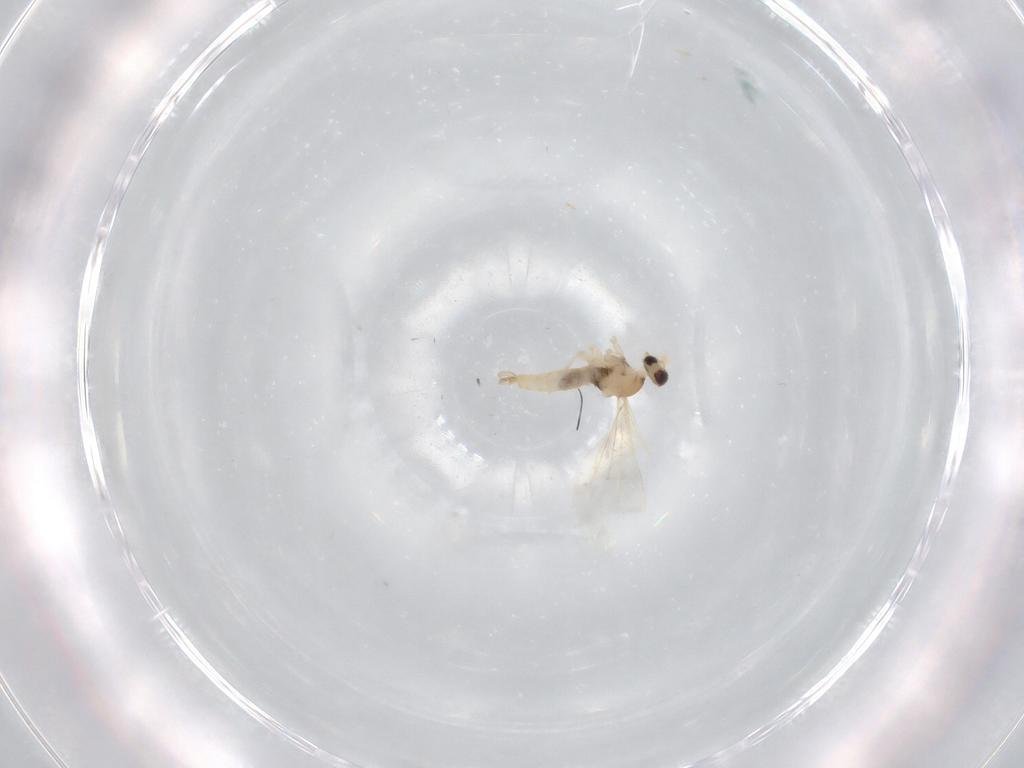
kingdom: Animalia
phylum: Arthropoda
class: Insecta
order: Diptera
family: Cecidomyiidae
